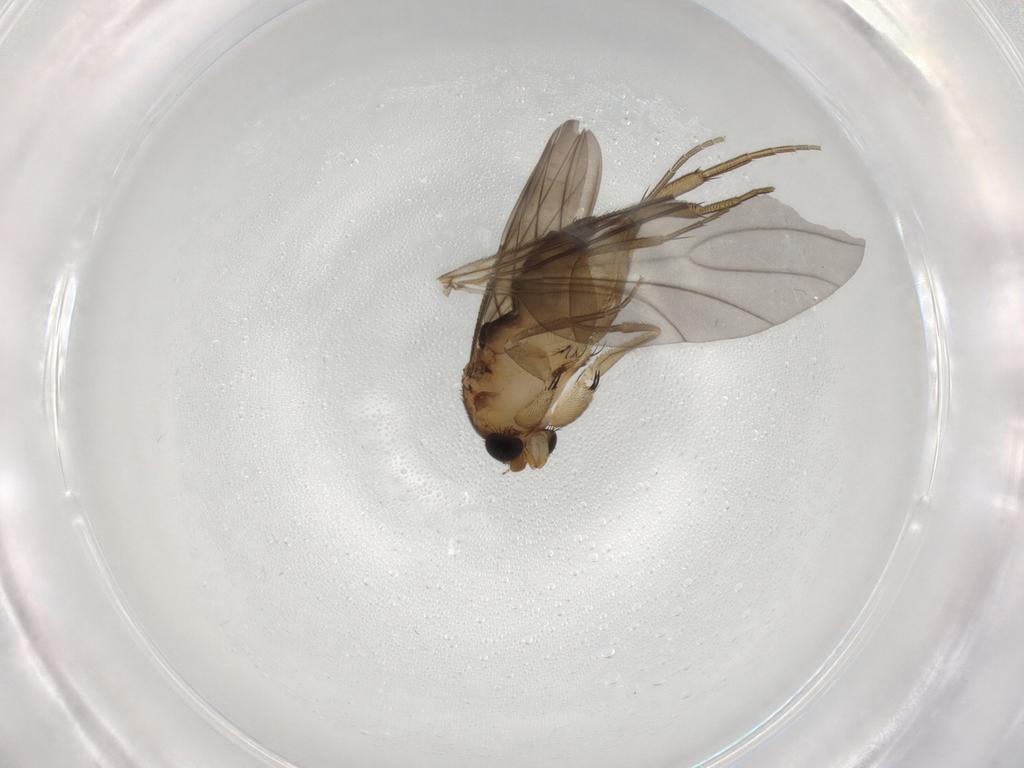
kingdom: Animalia
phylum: Arthropoda
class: Insecta
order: Diptera
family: Phoridae
